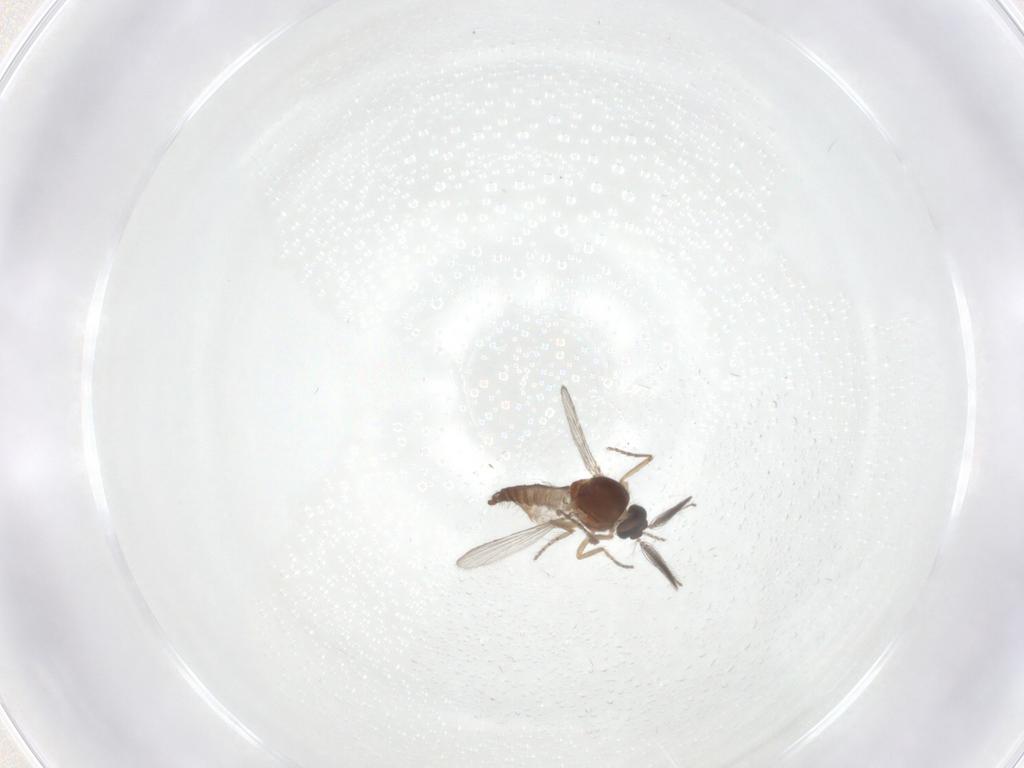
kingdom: Animalia
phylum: Arthropoda
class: Insecta
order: Diptera
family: Ceratopogonidae
